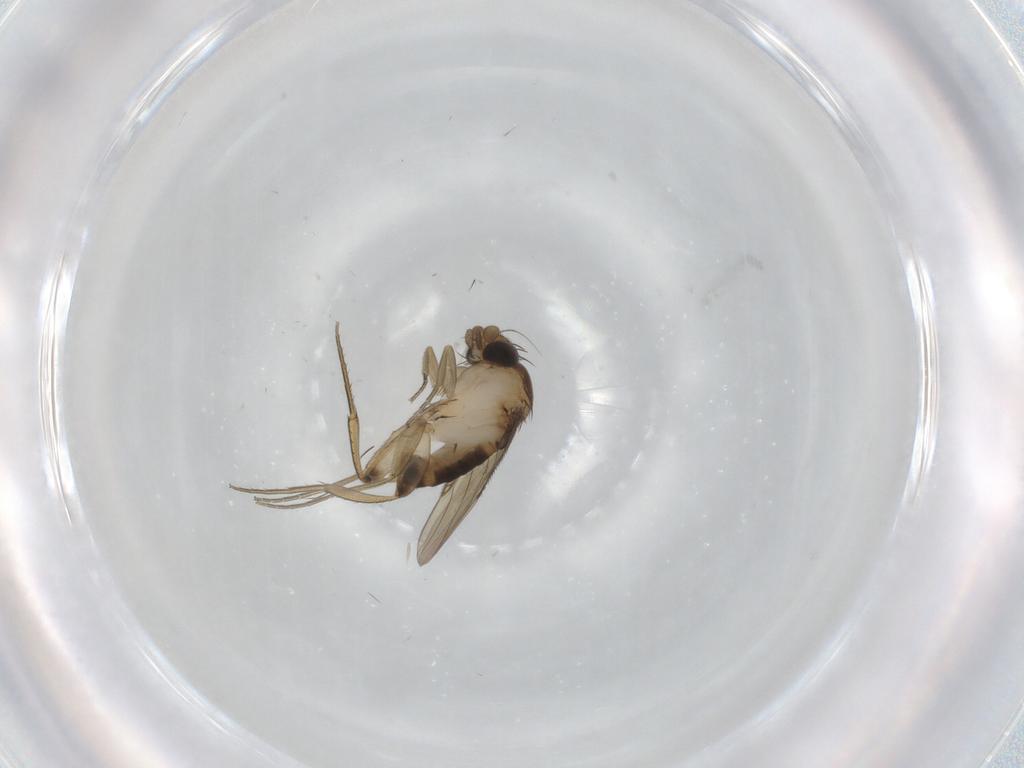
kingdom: Animalia
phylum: Arthropoda
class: Insecta
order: Diptera
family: Phoridae
